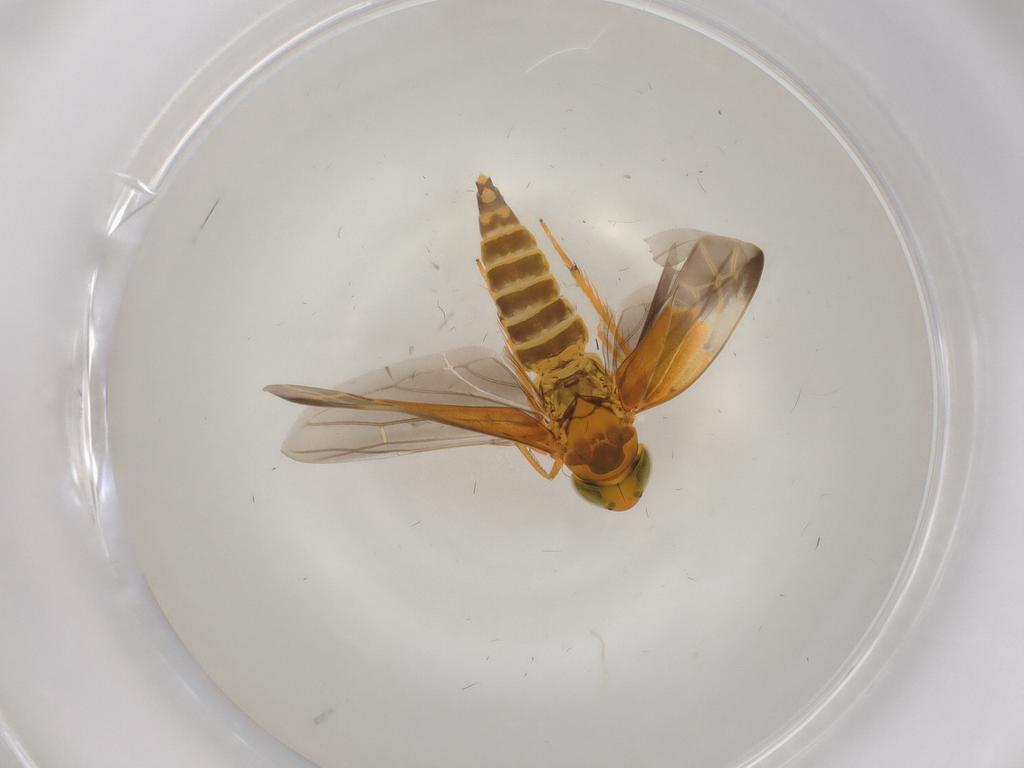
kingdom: Animalia
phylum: Arthropoda
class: Insecta
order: Hemiptera
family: Cicadellidae
